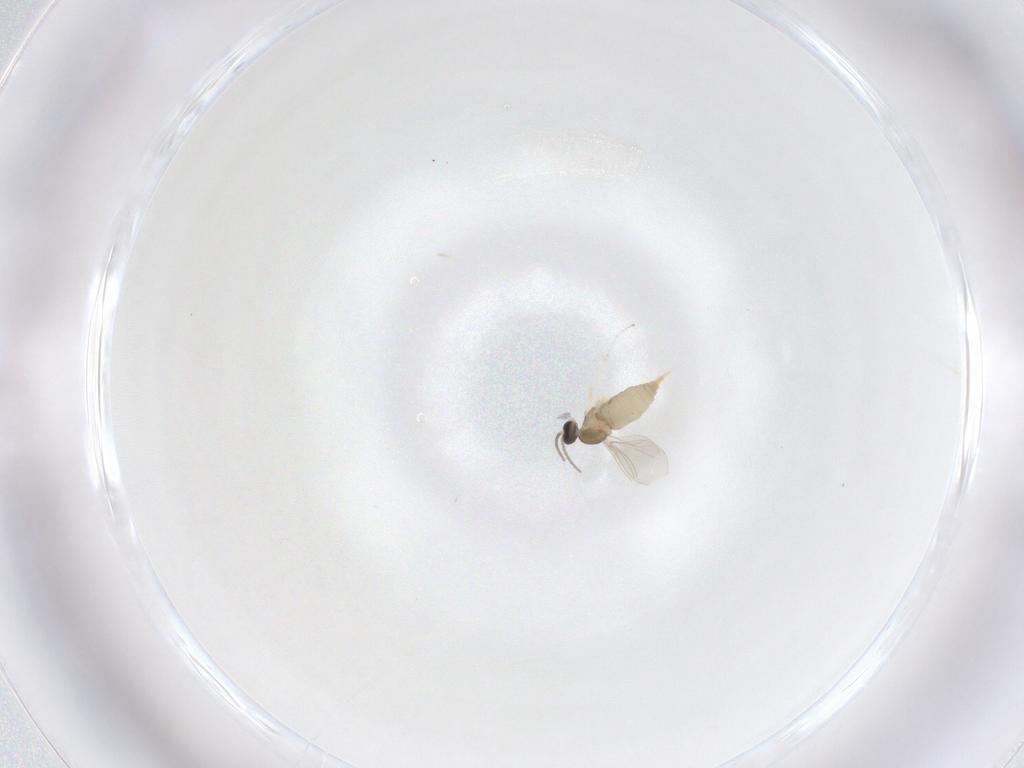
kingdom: Animalia
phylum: Arthropoda
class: Insecta
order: Diptera
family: Cecidomyiidae
